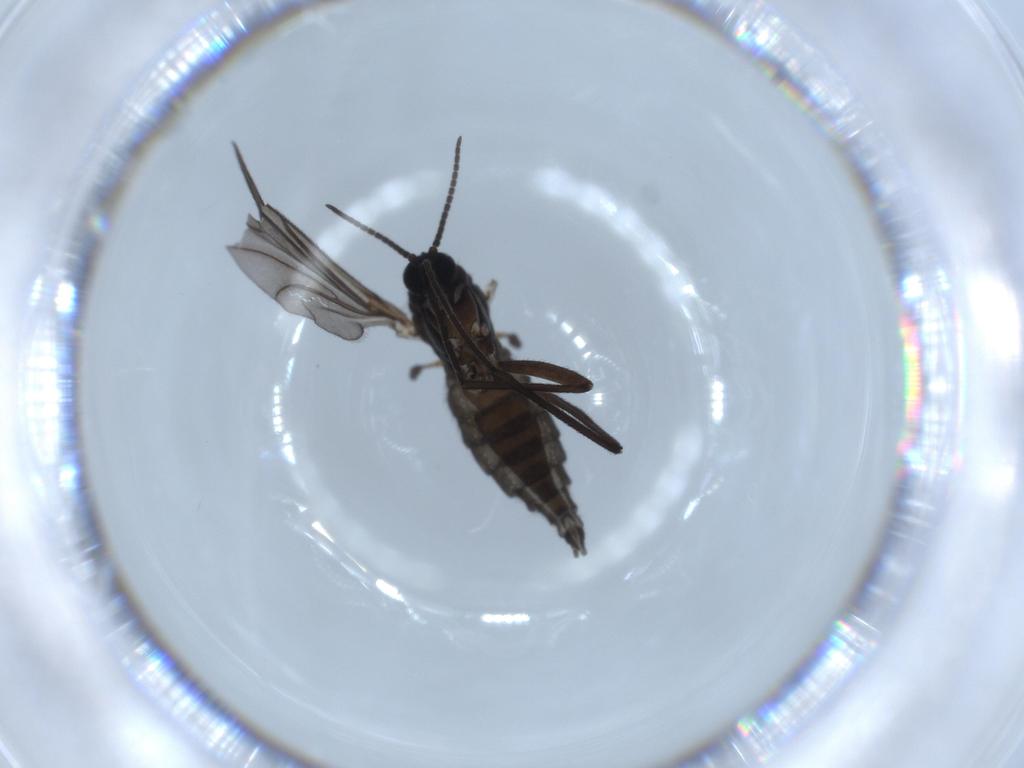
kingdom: Animalia
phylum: Arthropoda
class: Insecta
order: Diptera
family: Sciaridae
